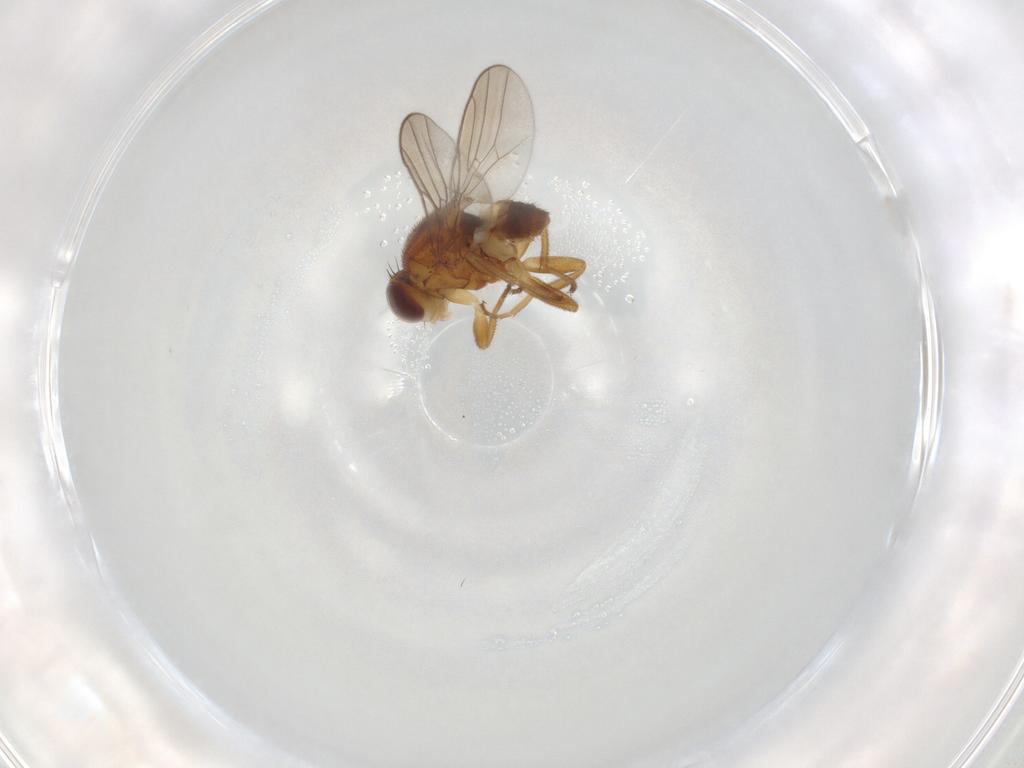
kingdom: Animalia
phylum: Arthropoda
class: Insecta
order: Diptera
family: Chloropidae
